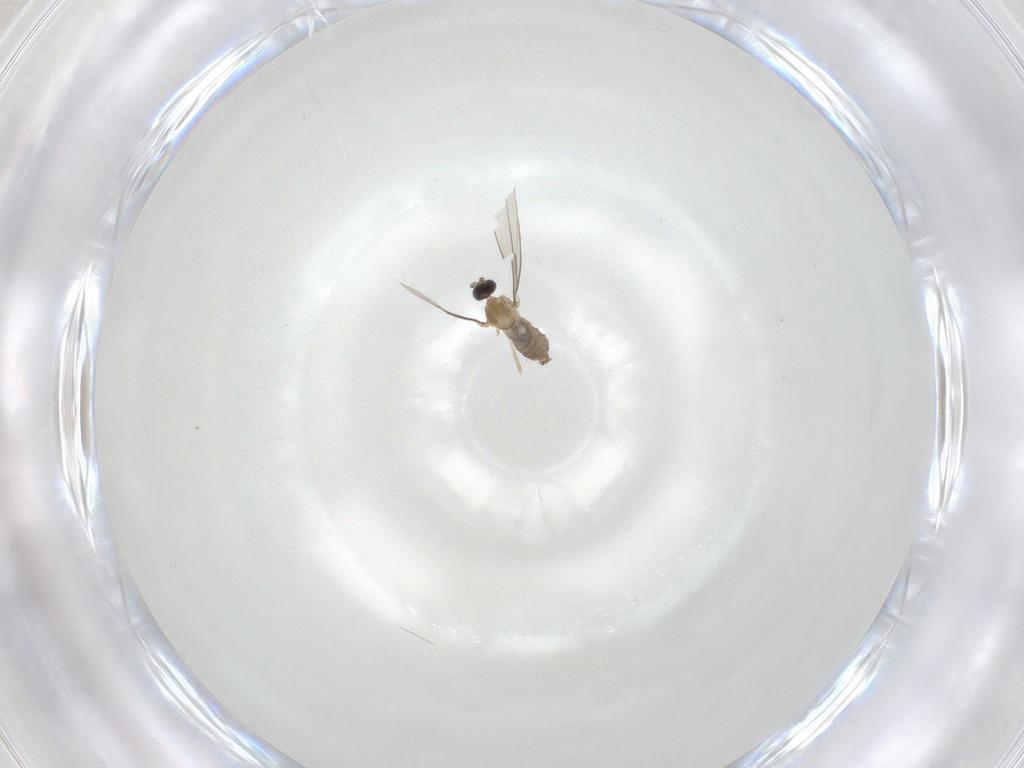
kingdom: Animalia
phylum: Arthropoda
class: Insecta
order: Diptera
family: Cecidomyiidae
